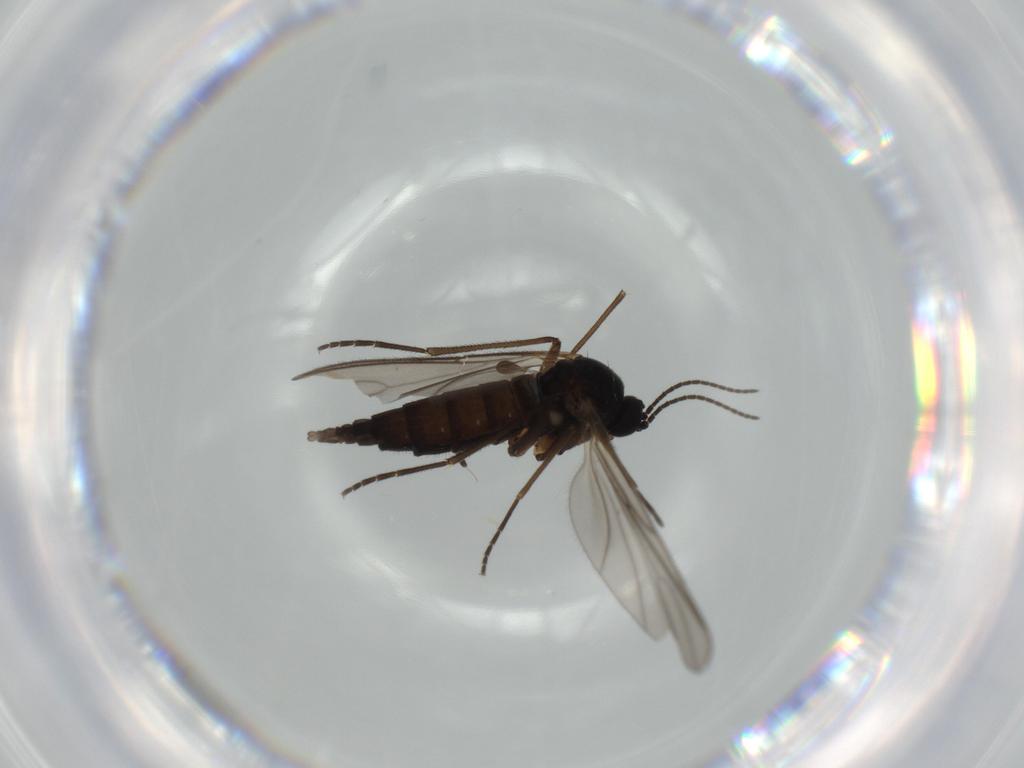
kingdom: Animalia
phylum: Arthropoda
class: Insecta
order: Diptera
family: Sciaridae
